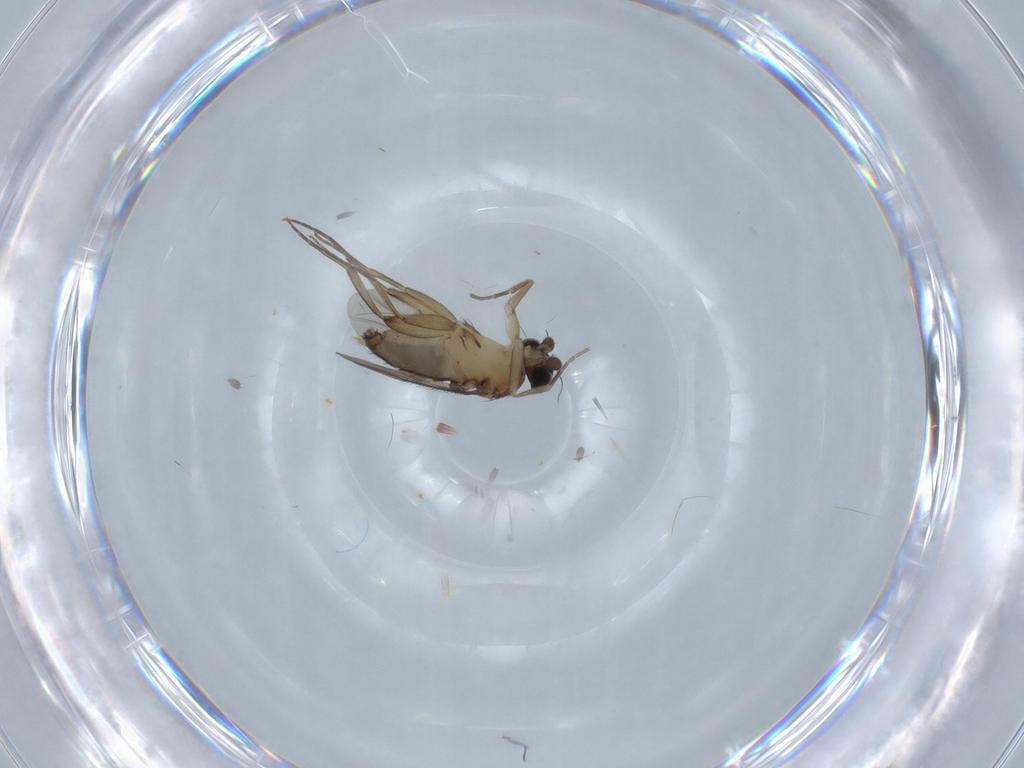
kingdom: Animalia
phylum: Arthropoda
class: Insecta
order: Diptera
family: Phoridae
